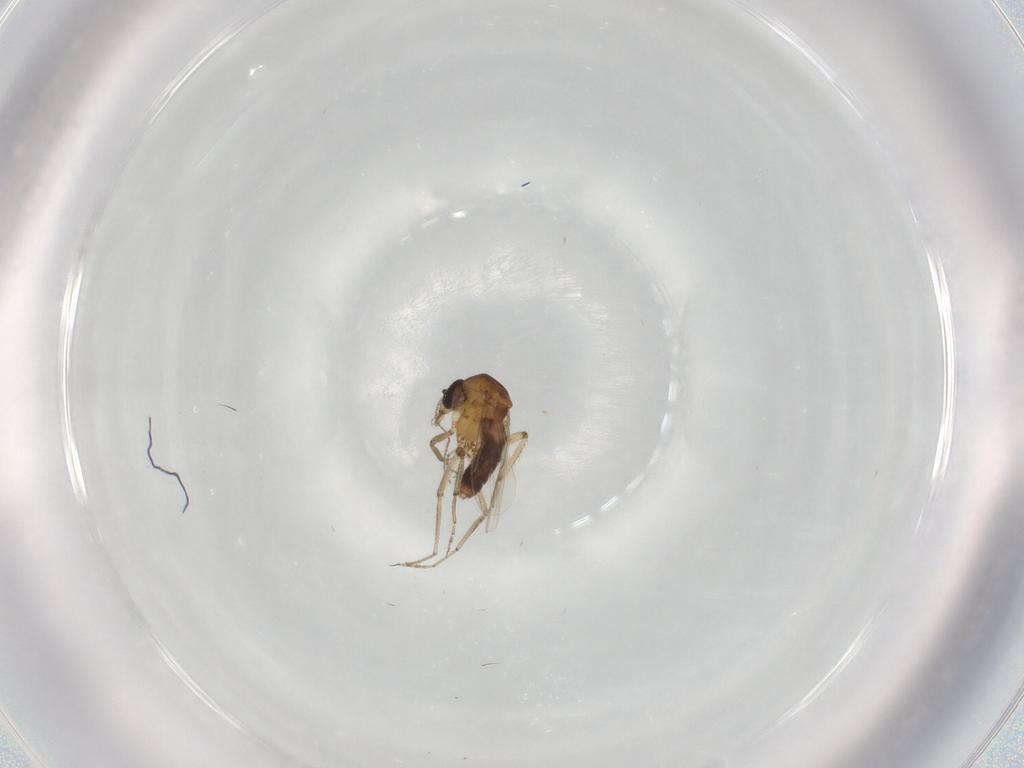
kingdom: Animalia
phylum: Arthropoda
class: Insecta
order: Diptera
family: Ceratopogonidae
